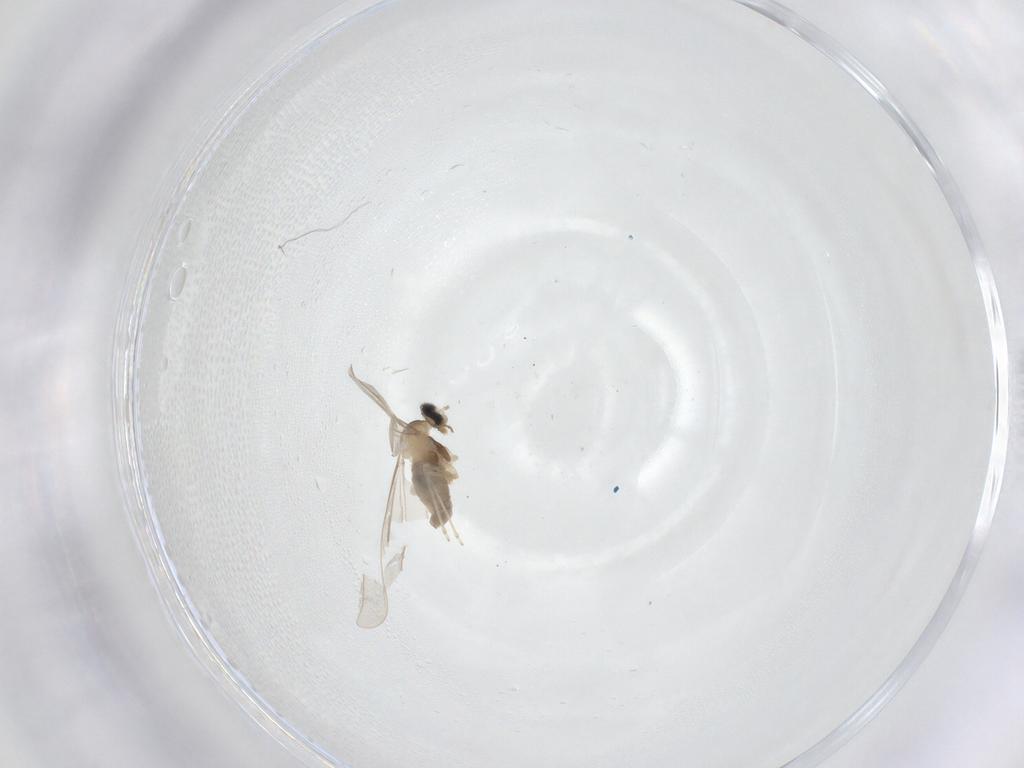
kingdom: Animalia
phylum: Arthropoda
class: Insecta
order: Diptera
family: Cecidomyiidae
